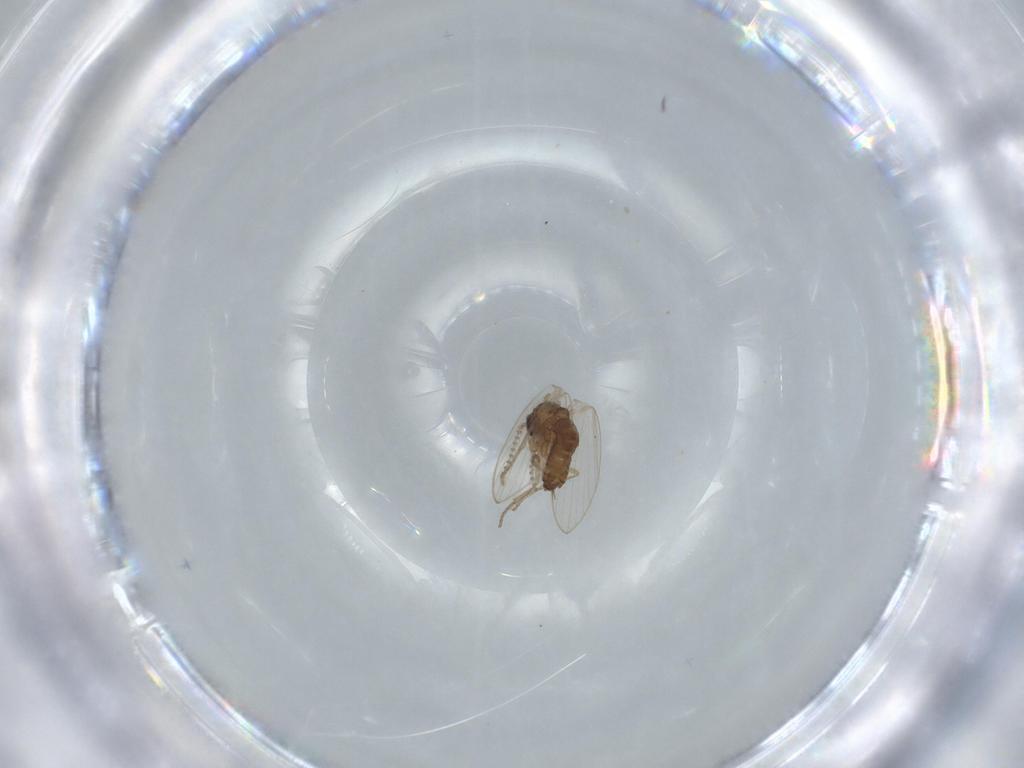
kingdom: Animalia
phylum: Arthropoda
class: Insecta
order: Diptera
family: Psychodidae
